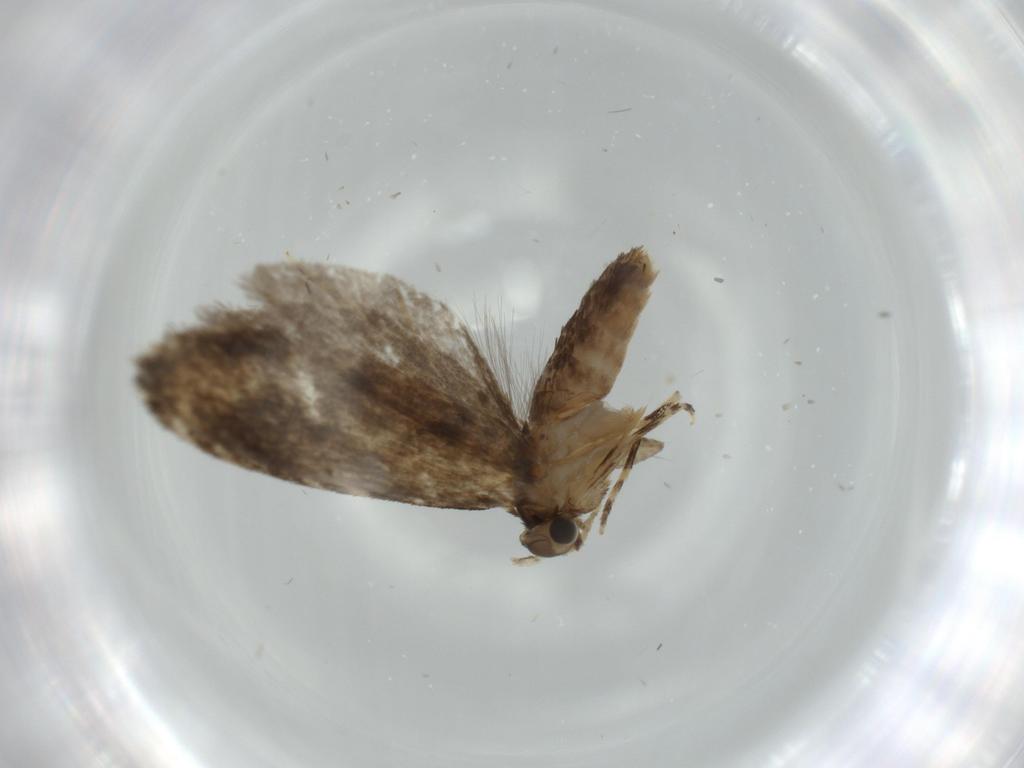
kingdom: Animalia
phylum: Arthropoda
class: Insecta
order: Lepidoptera
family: Tineidae
